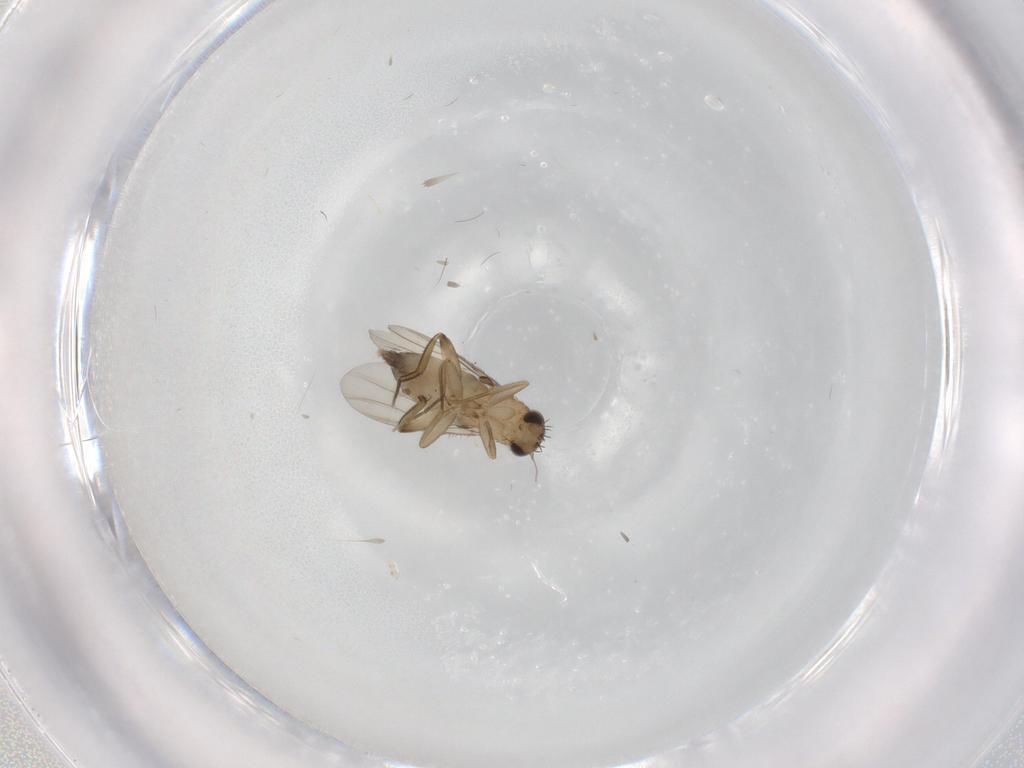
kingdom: Animalia
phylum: Arthropoda
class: Insecta
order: Diptera
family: Phoridae
